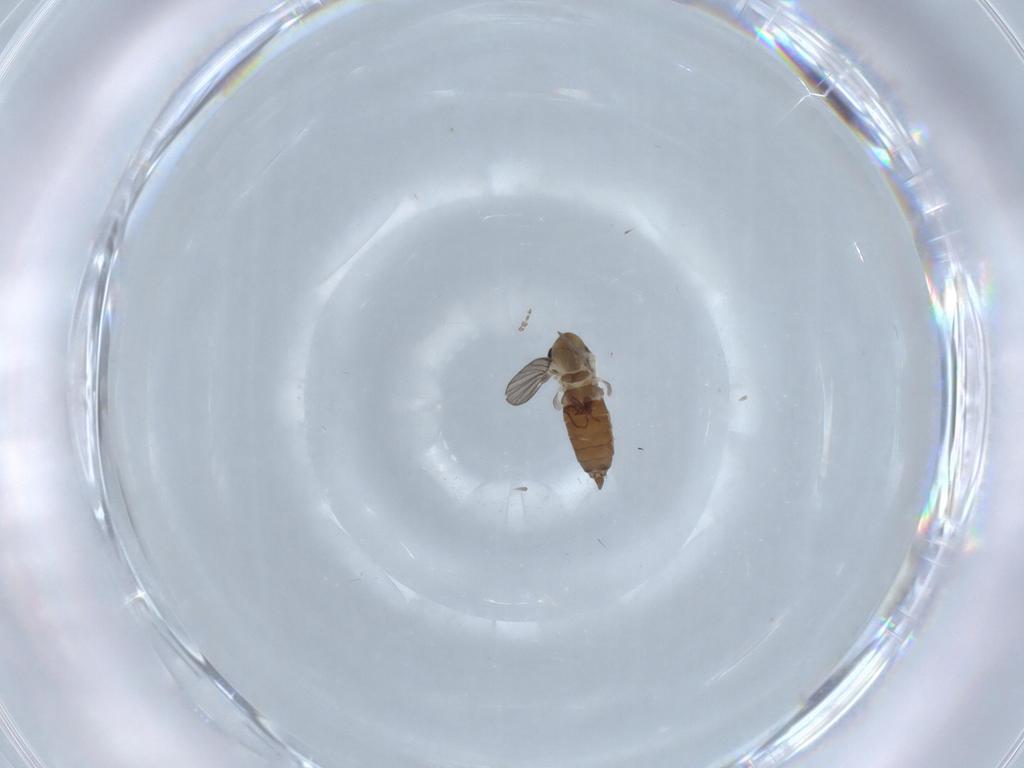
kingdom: Animalia
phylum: Arthropoda
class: Insecta
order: Diptera
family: Psychodidae
